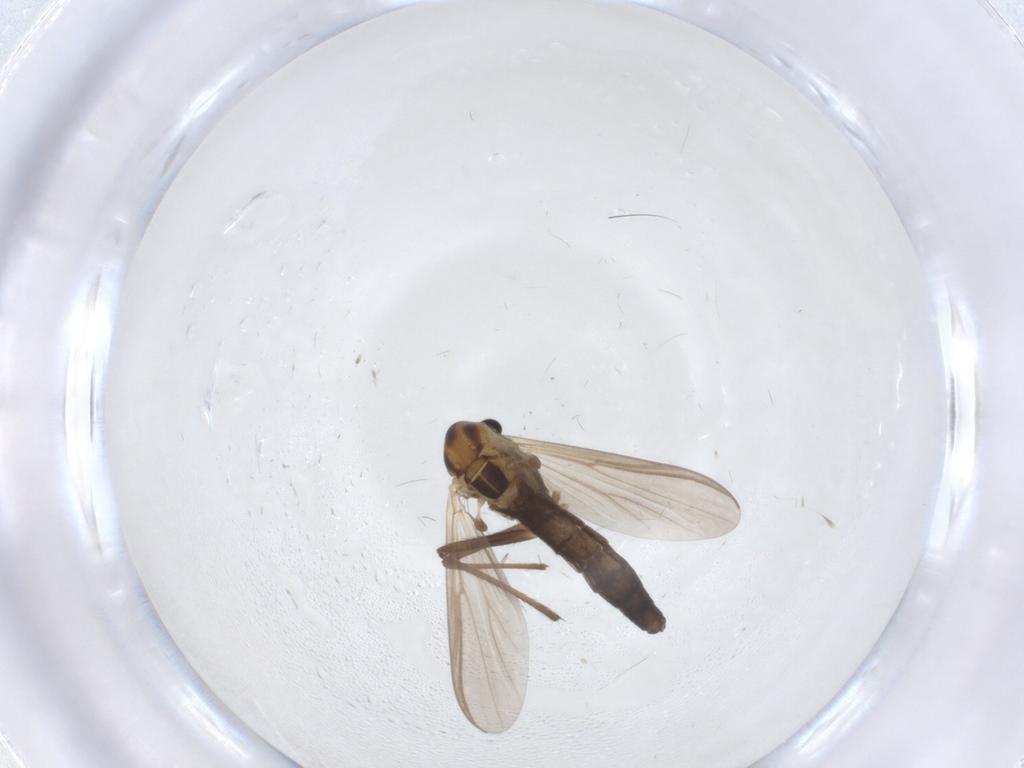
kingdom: Animalia
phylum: Arthropoda
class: Insecta
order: Diptera
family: Chironomidae
